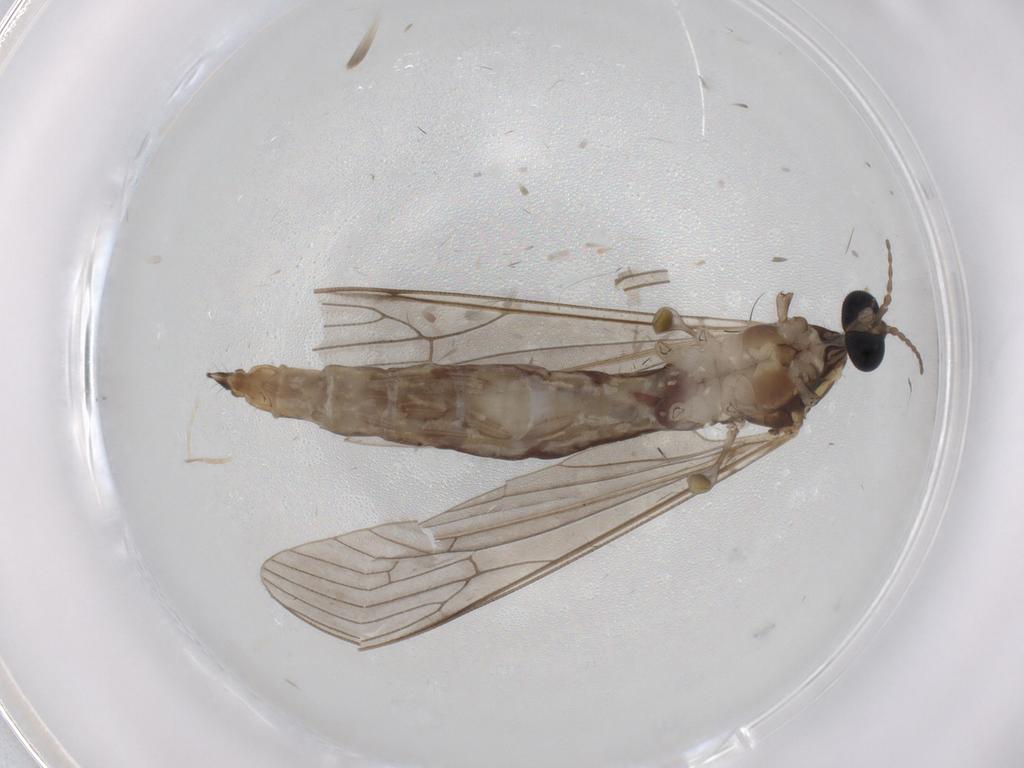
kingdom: Animalia
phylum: Arthropoda
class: Insecta
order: Diptera
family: Limoniidae
